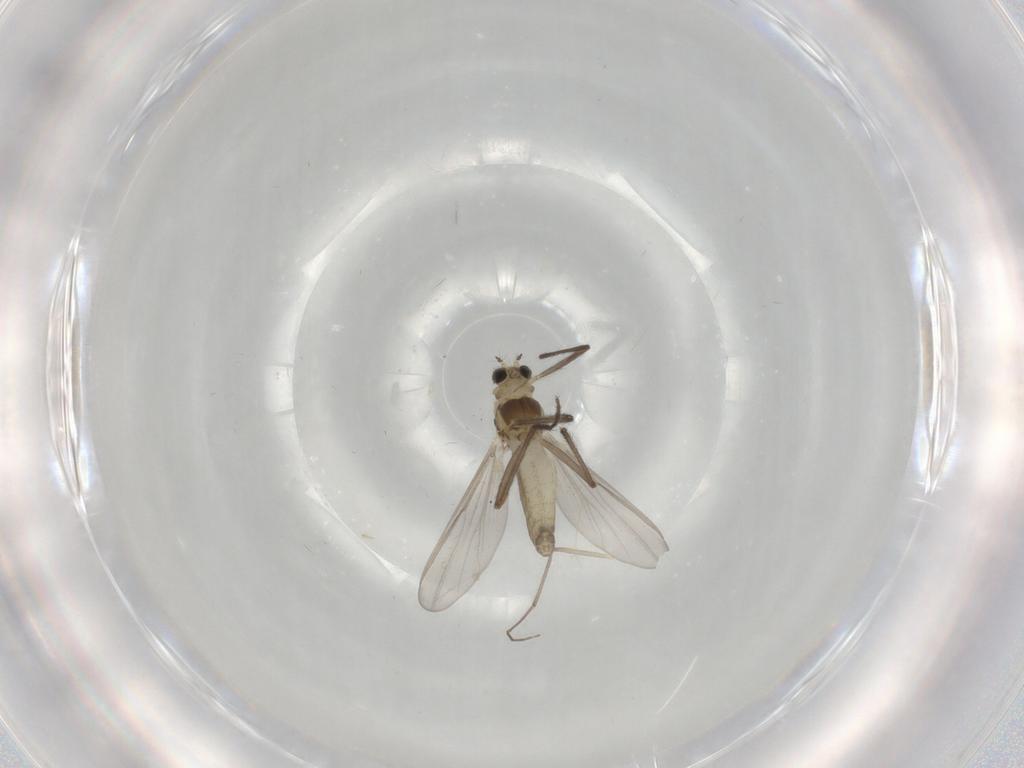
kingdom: Animalia
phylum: Arthropoda
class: Insecta
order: Diptera
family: Chironomidae
